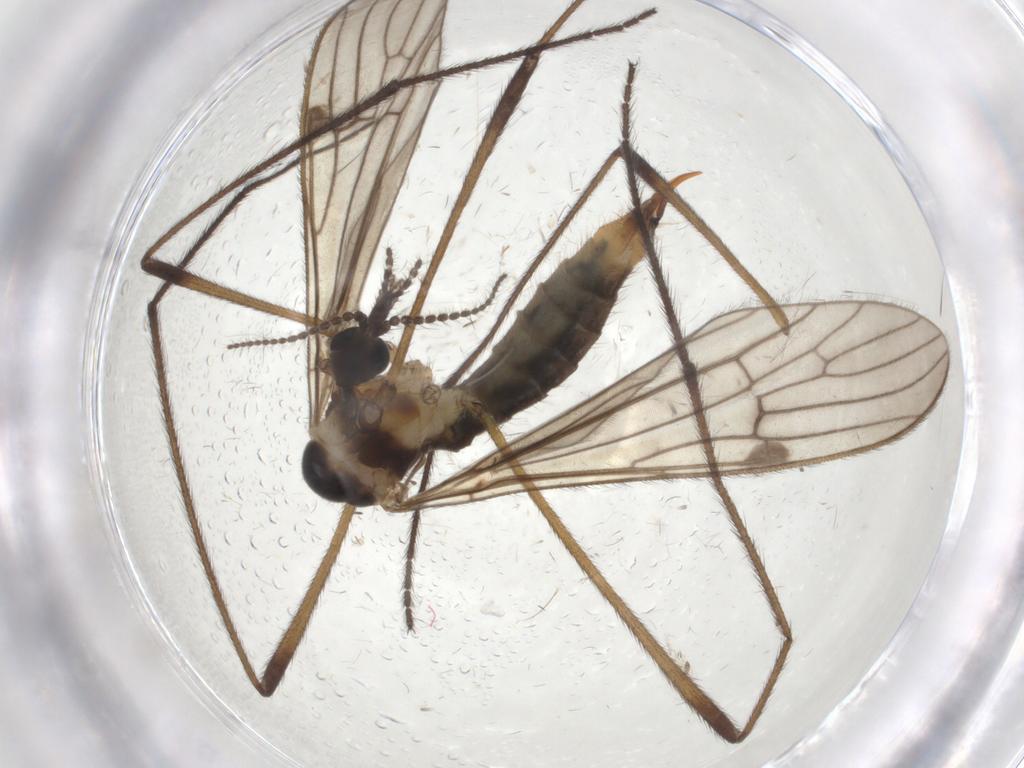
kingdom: Animalia
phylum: Arthropoda
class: Insecta
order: Diptera
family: Limoniidae
